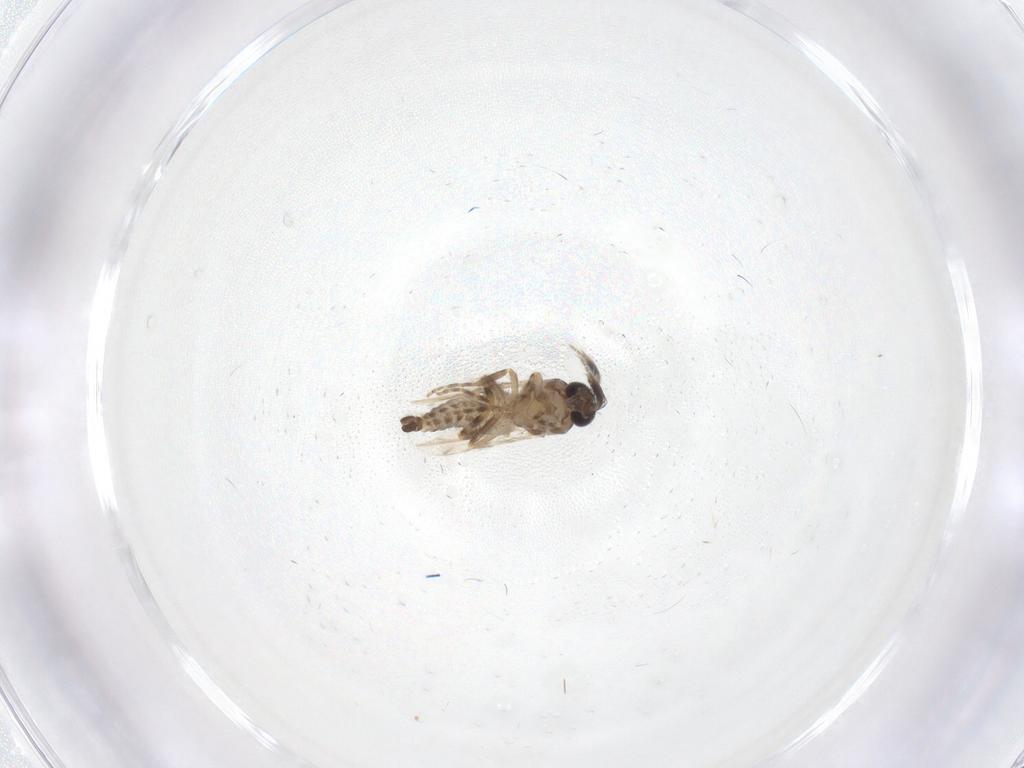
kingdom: Animalia
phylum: Arthropoda
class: Insecta
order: Diptera
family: Ceratopogonidae
